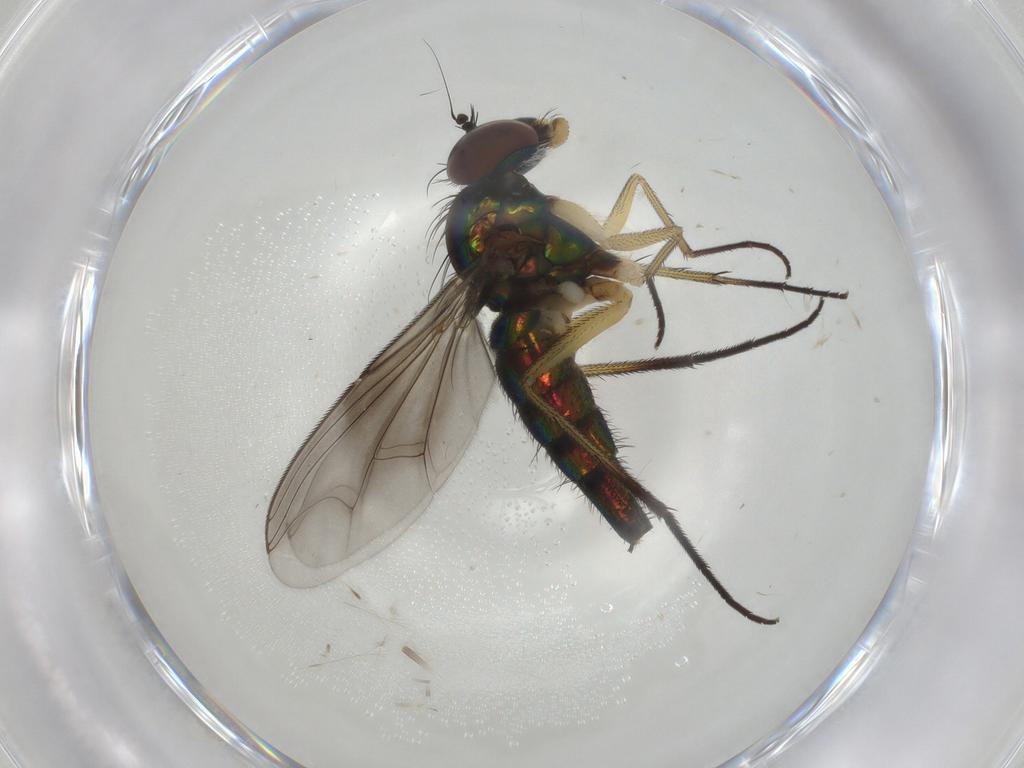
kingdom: Animalia
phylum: Arthropoda
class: Insecta
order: Diptera
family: Dolichopodidae
